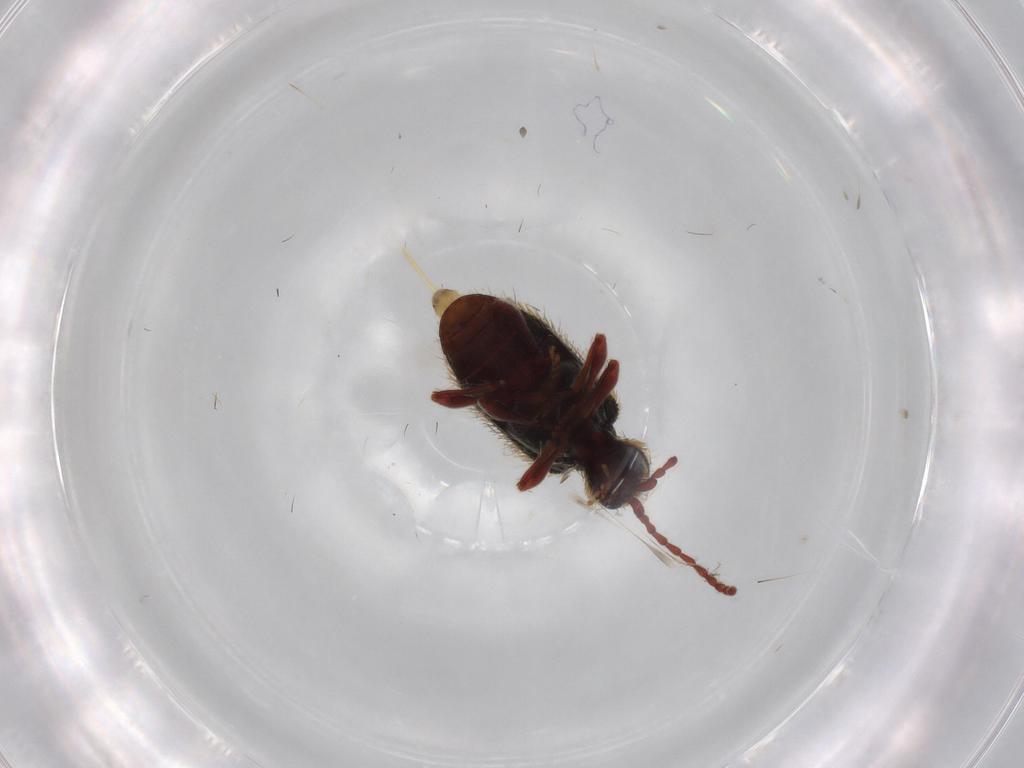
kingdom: Animalia
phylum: Arthropoda
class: Insecta
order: Coleoptera
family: Ptinidae
